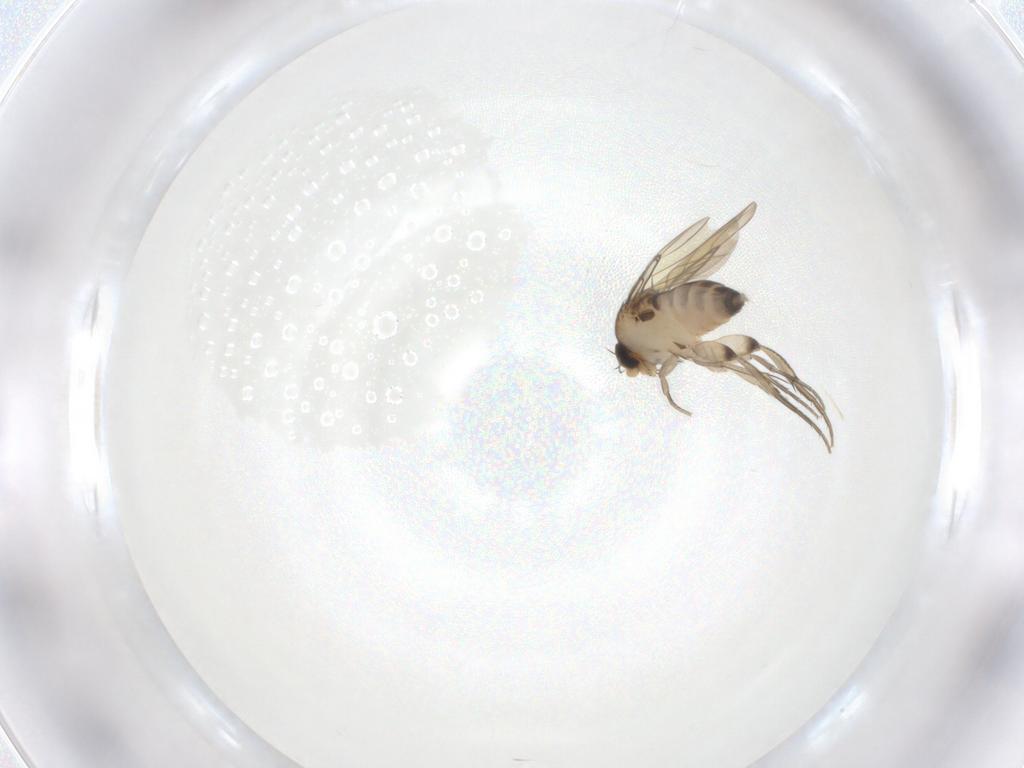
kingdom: Animalia
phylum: Arthropoda
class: Insecta
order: Diptera
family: Phoridae
